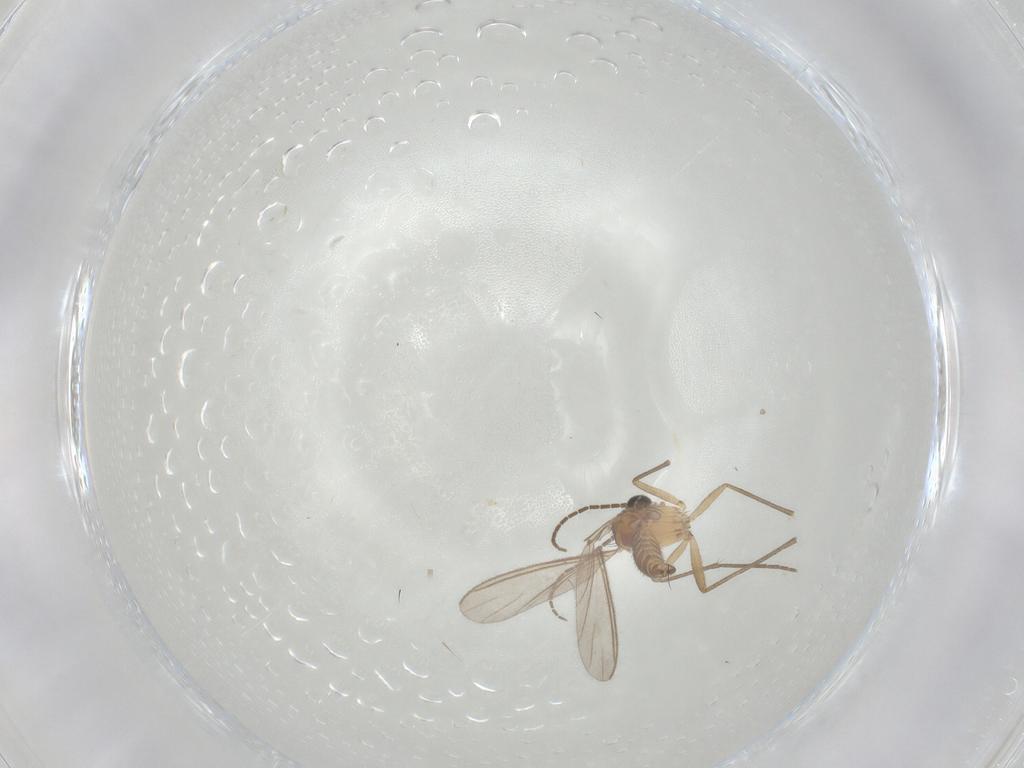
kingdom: Animalia
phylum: Arthropoda
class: Insecta
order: Diptera
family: Sciaridae
